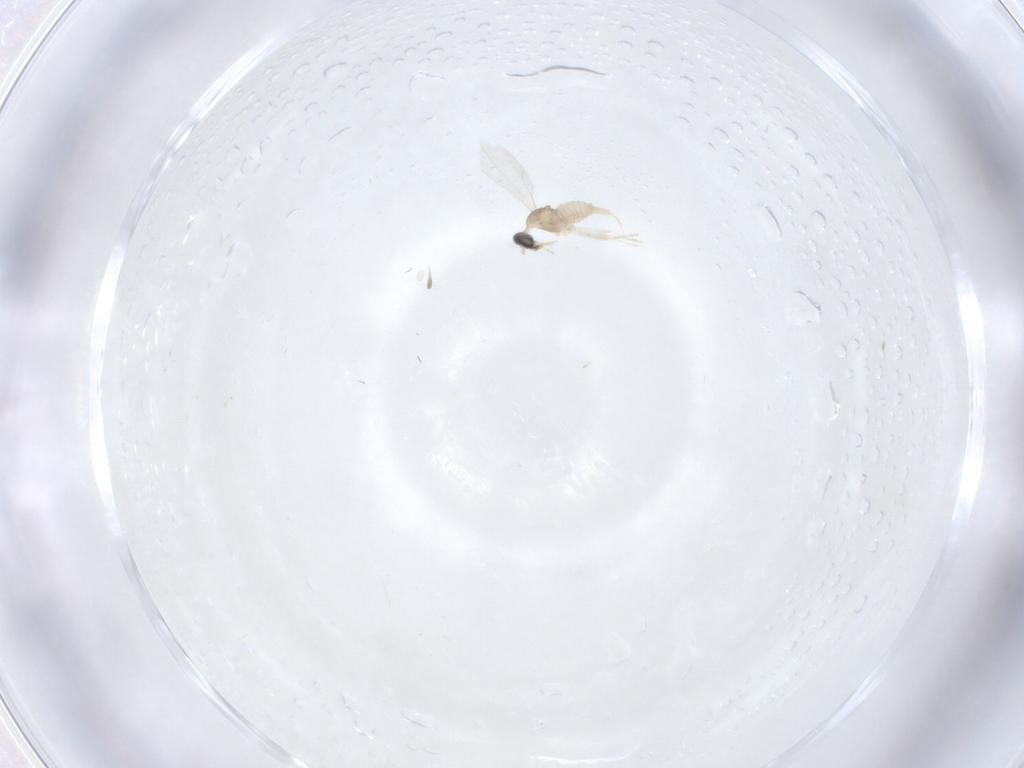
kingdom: Animalia
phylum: Arthropoda
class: Insecta
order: Diptera
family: Cecidomyiidae
